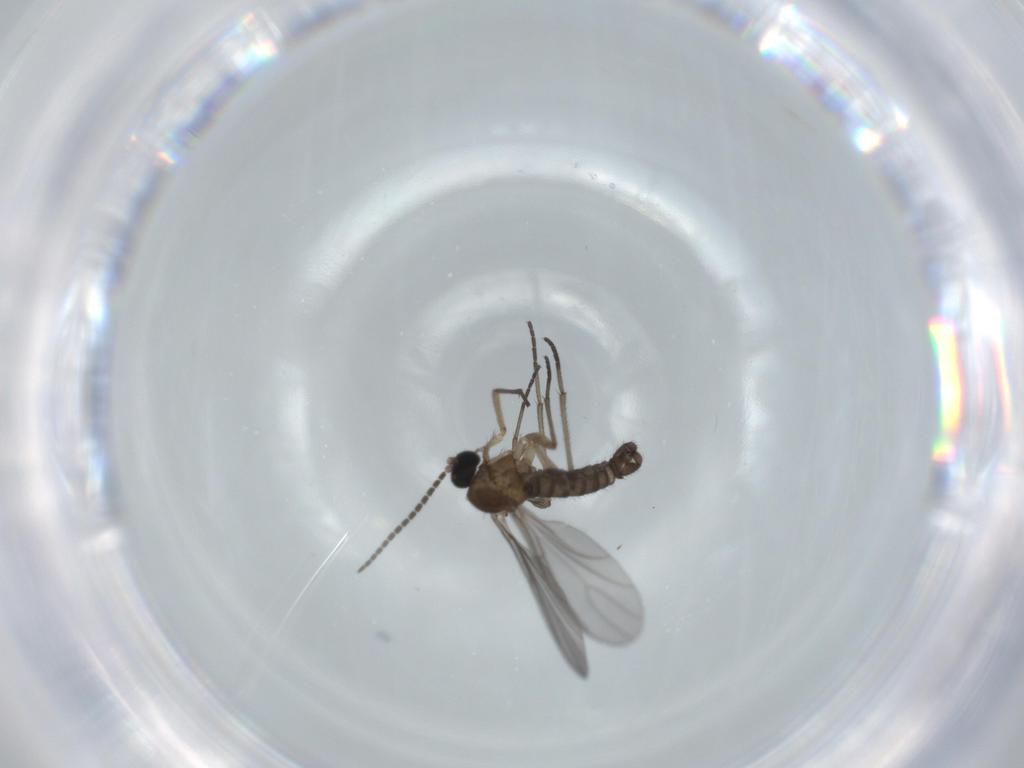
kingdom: Animalia
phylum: Arthropoda
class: Insecta
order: Diptera
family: Sciaridae
